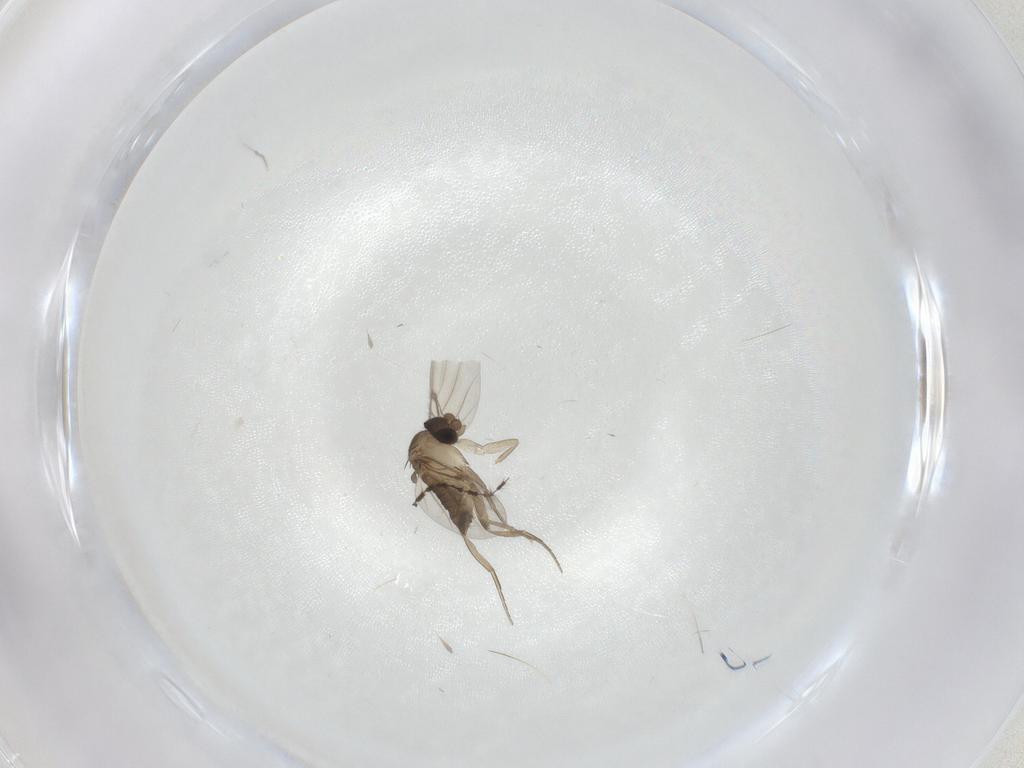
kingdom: Animalia
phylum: Arthropoda
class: Insecta
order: Diptera
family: Phoridae
